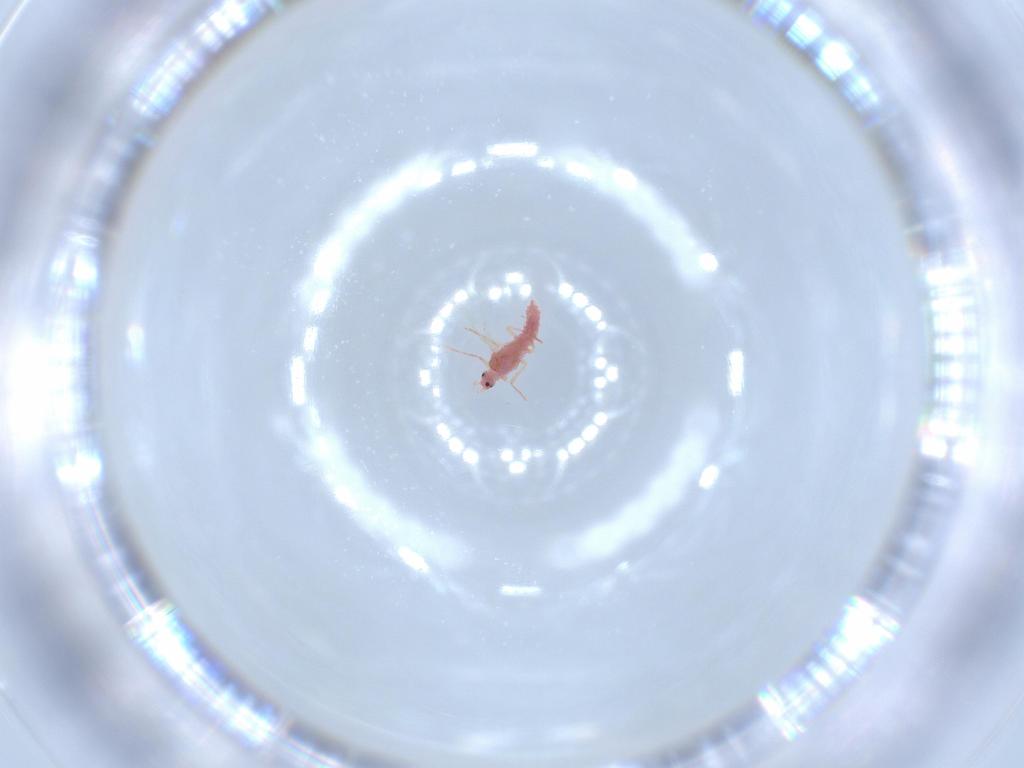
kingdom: Animalia
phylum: Arthropoda
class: Insecta
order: Hemiptera
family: Pseudococcidae
